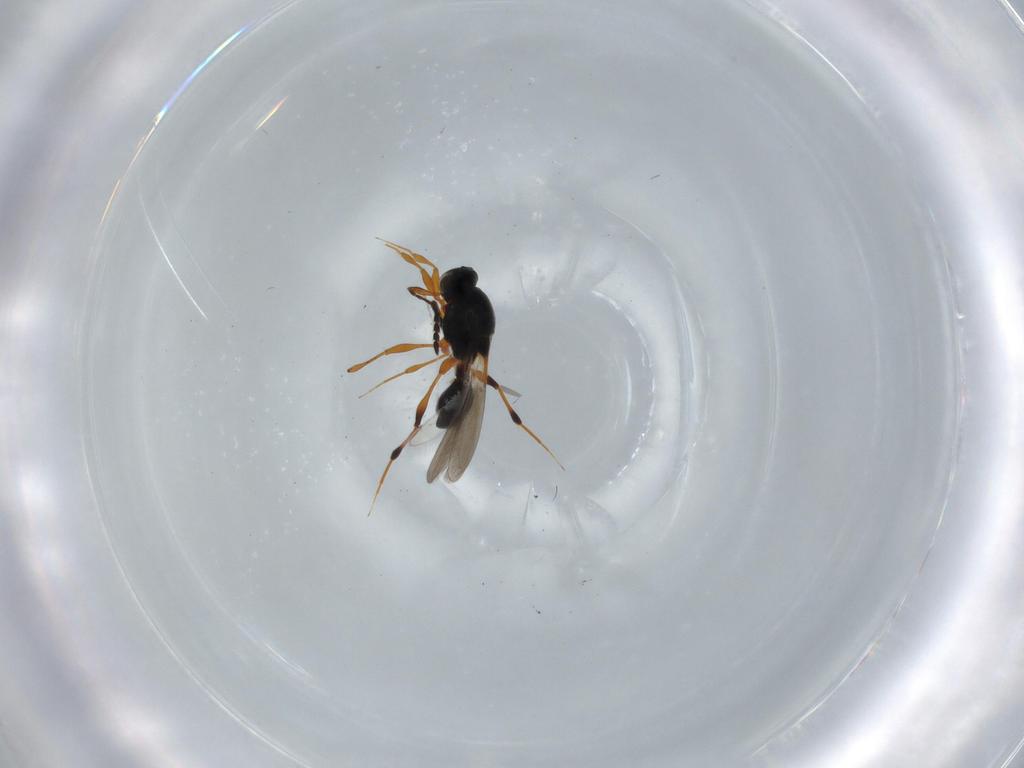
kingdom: Animalia
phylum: Arthropoda
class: Insecta
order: Hymenoptera
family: Platygastridae
